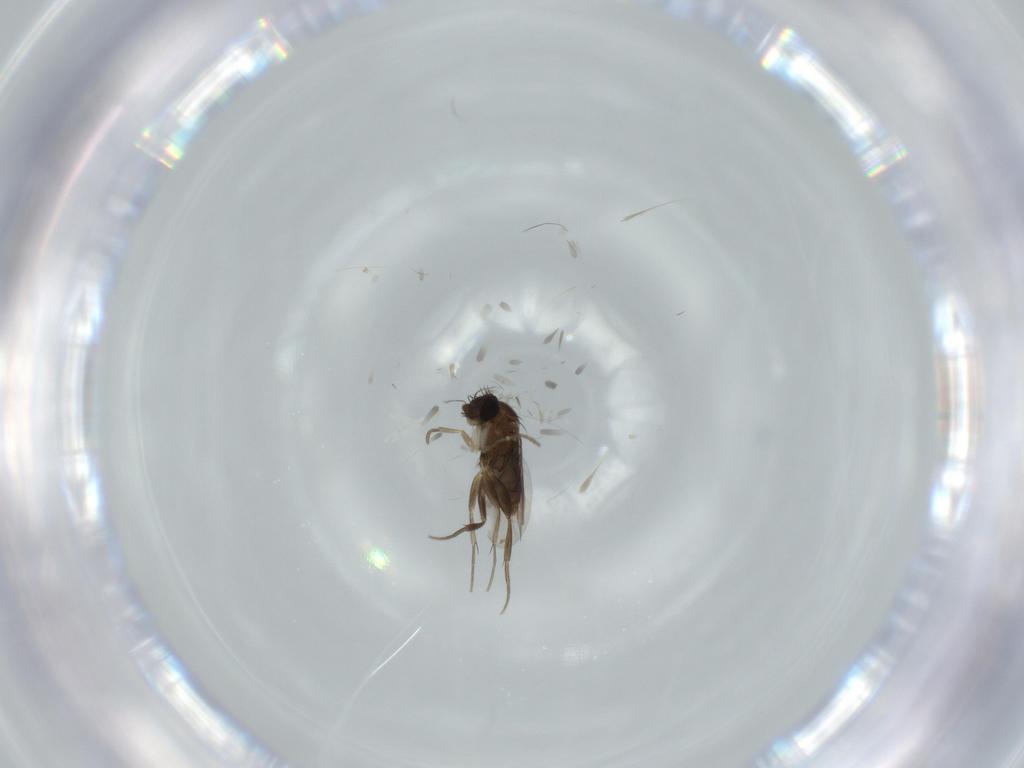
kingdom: Animalia
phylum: Arthropoda
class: Insecta
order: Diptera
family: Phoridae
